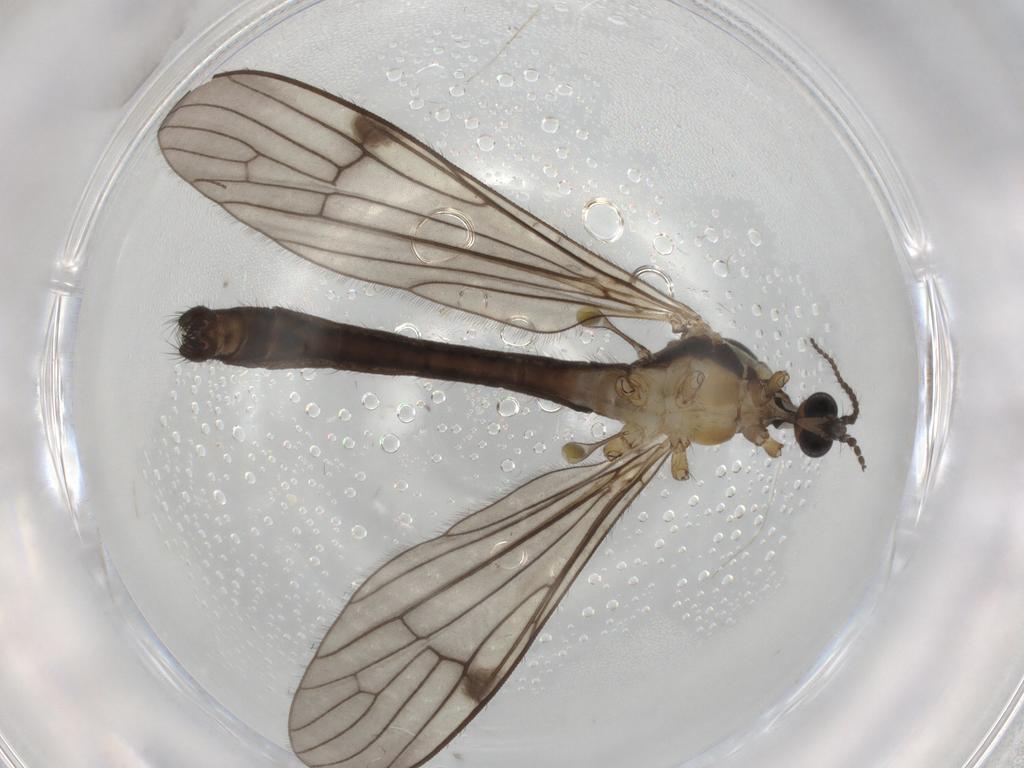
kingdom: Animalia
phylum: Arthropoda
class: Insecta
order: Diptera
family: Limoniidae
